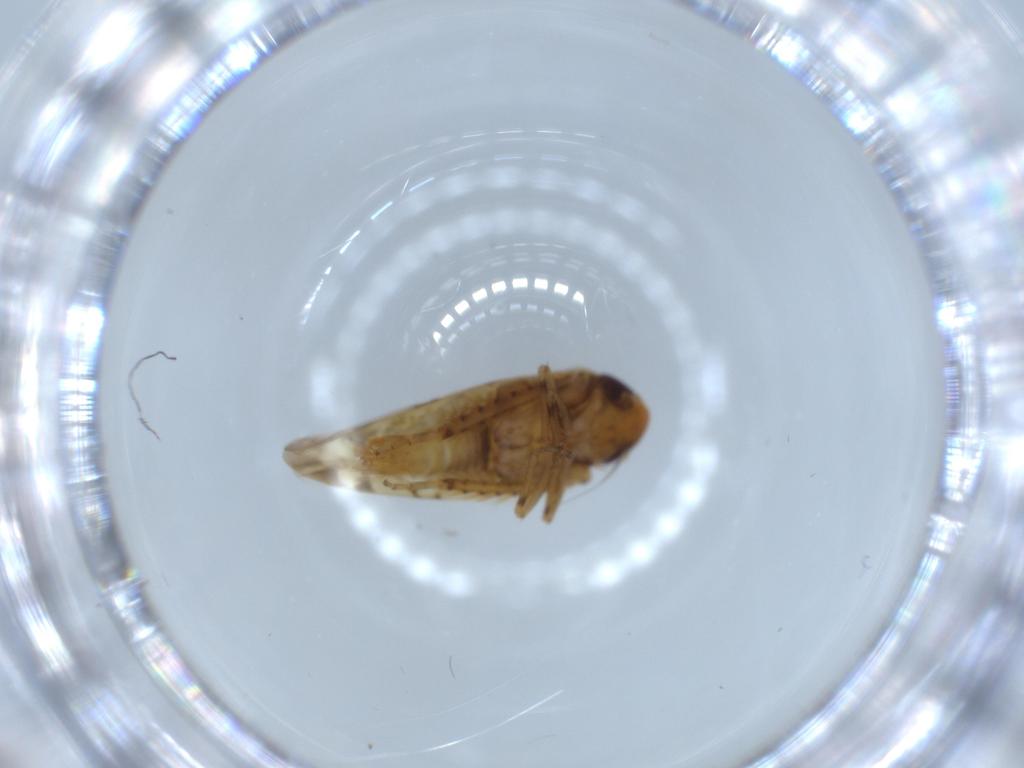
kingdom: Animalia
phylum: Arthropoda
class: Insecta
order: Hemiptera
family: Cicadellidae
